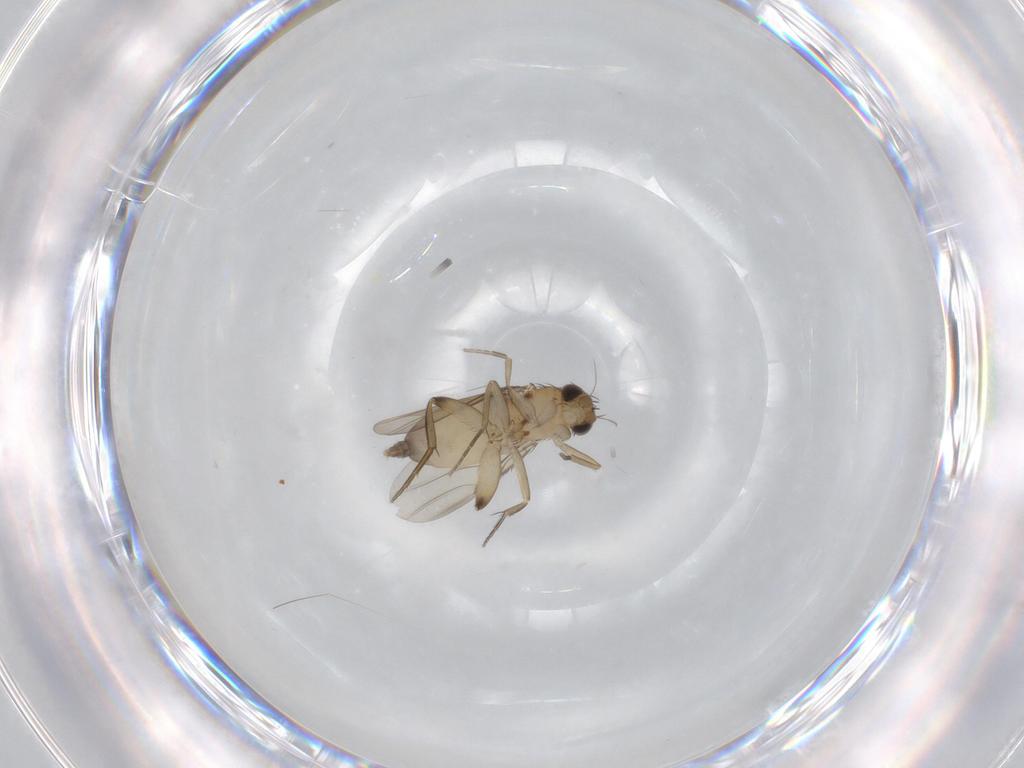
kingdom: Animalia
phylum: Arthropoda
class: Insecta
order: Diptera
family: Phoridae
